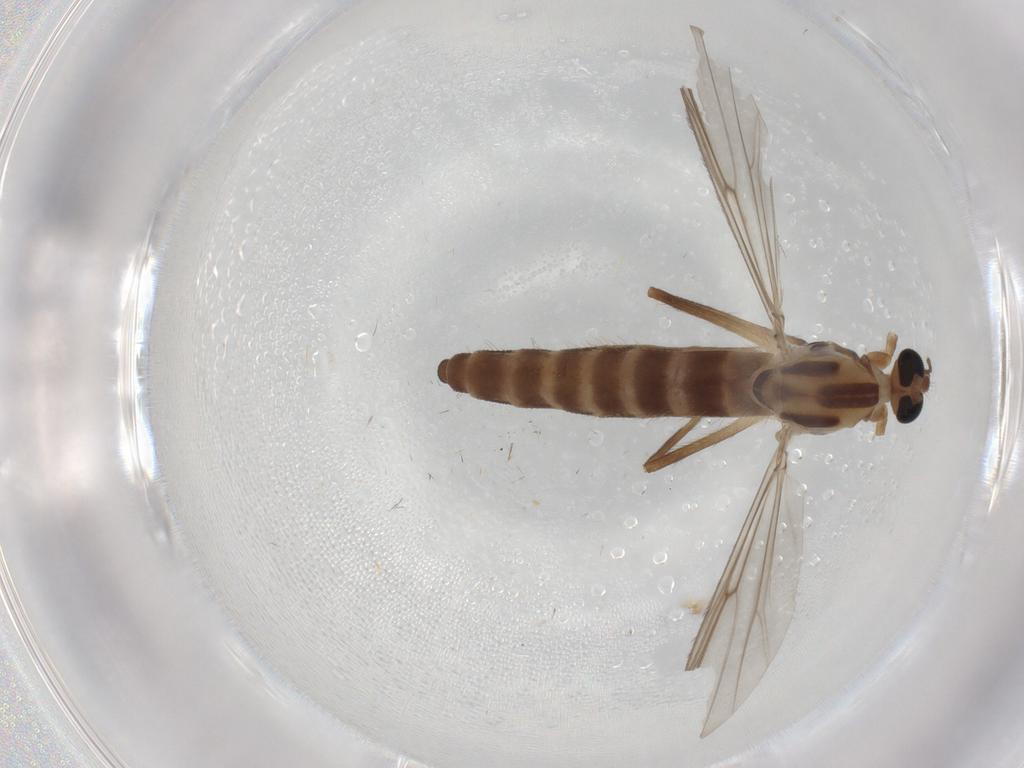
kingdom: Animalia
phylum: Arthropoda
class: Insecta
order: Diptera
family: Chironomidae
